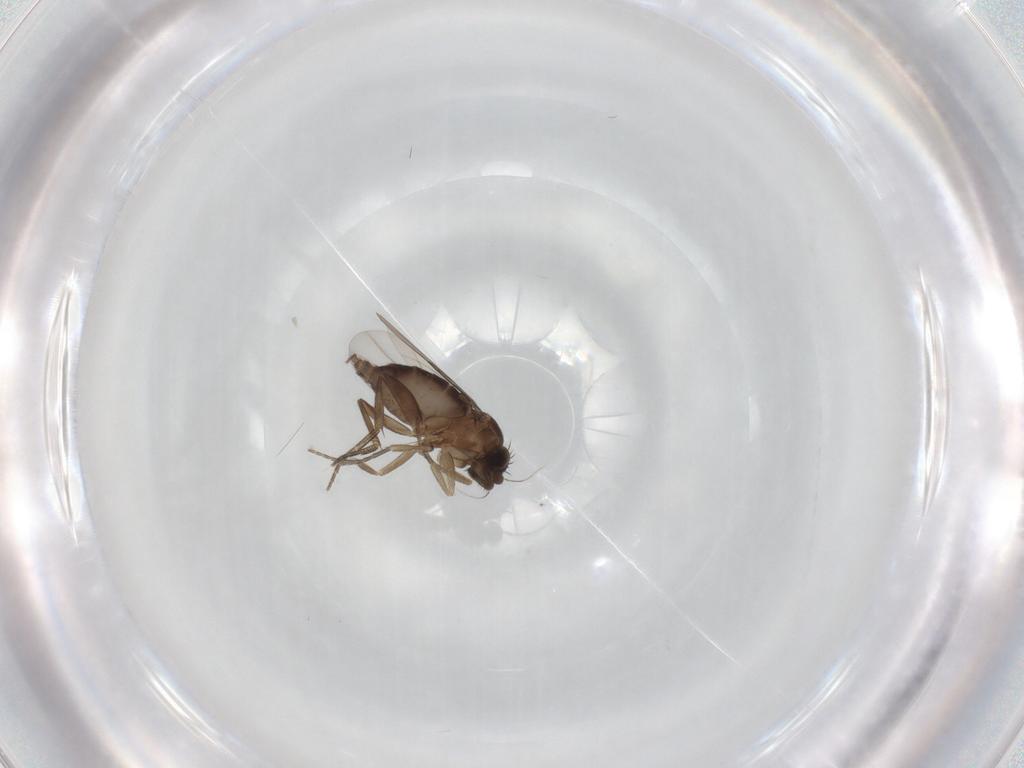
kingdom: Animalia
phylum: Arthropoda
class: Insecta
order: Diptera
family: Phoridae
